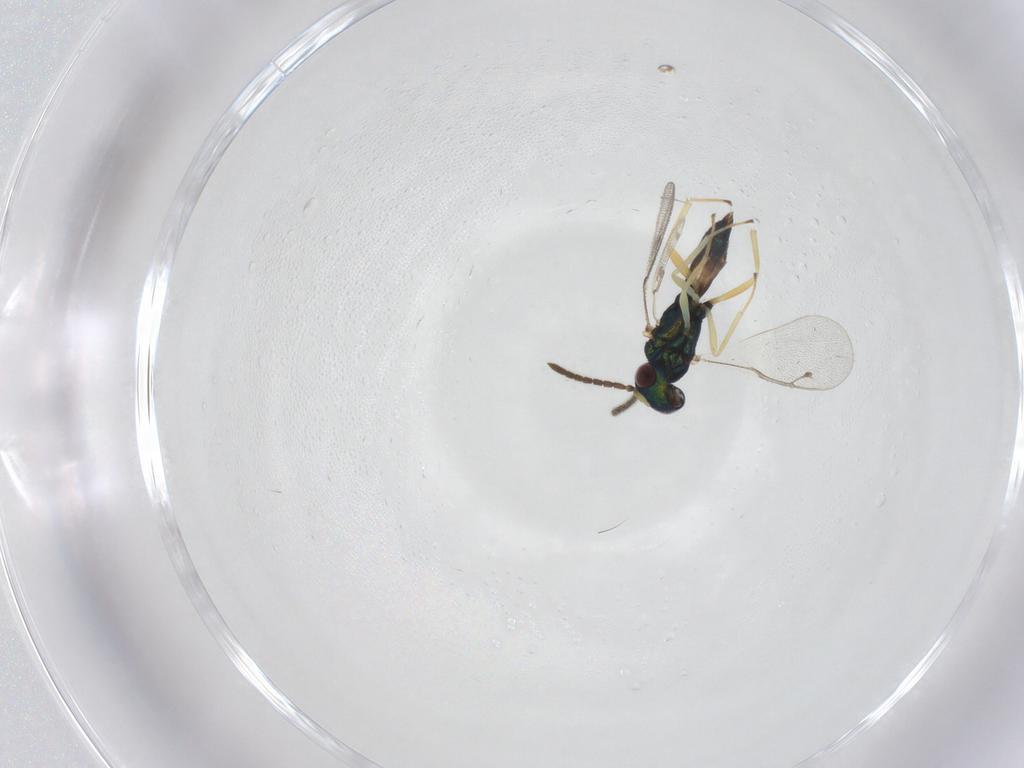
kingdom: Animalia
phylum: Arthropoda
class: Insecta
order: Hymenoptera
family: Pteromalidae
